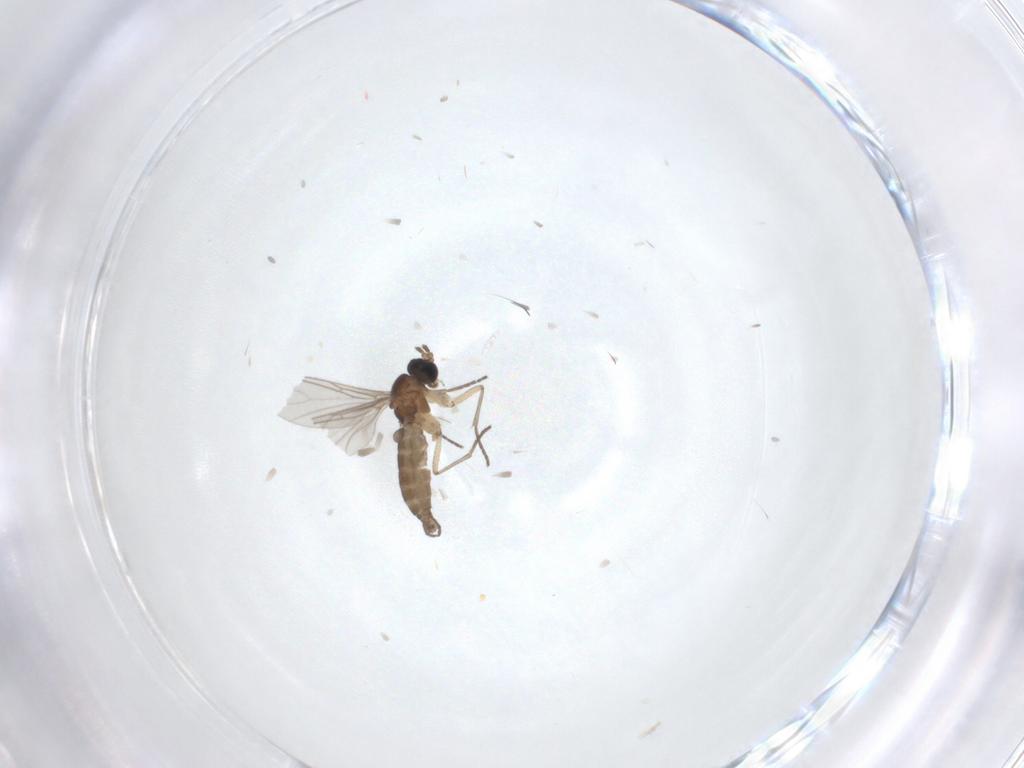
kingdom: Animalia
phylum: Arthropoda
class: Insecta
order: Diptera
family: Sciaridae
